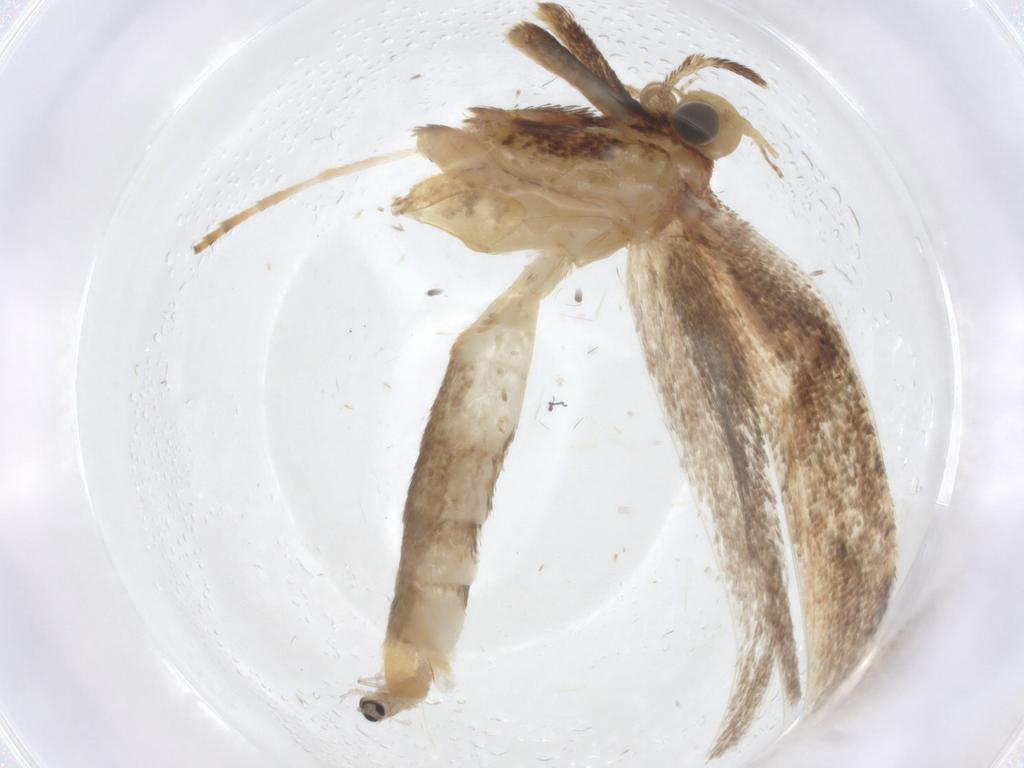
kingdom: Animalia
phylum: Arthropoda
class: Insecta
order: Lepidoptera
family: Gracillariidae
